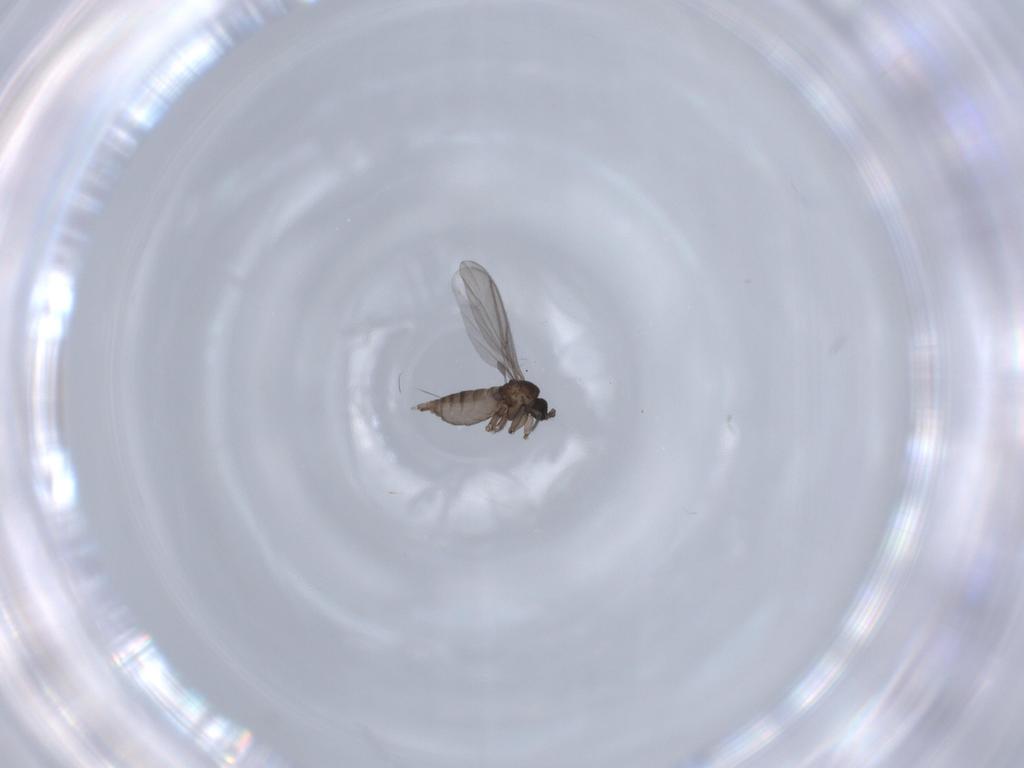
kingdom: Animalia
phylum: Arthropoda
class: Insecta
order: Diptera
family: Sciaridae
